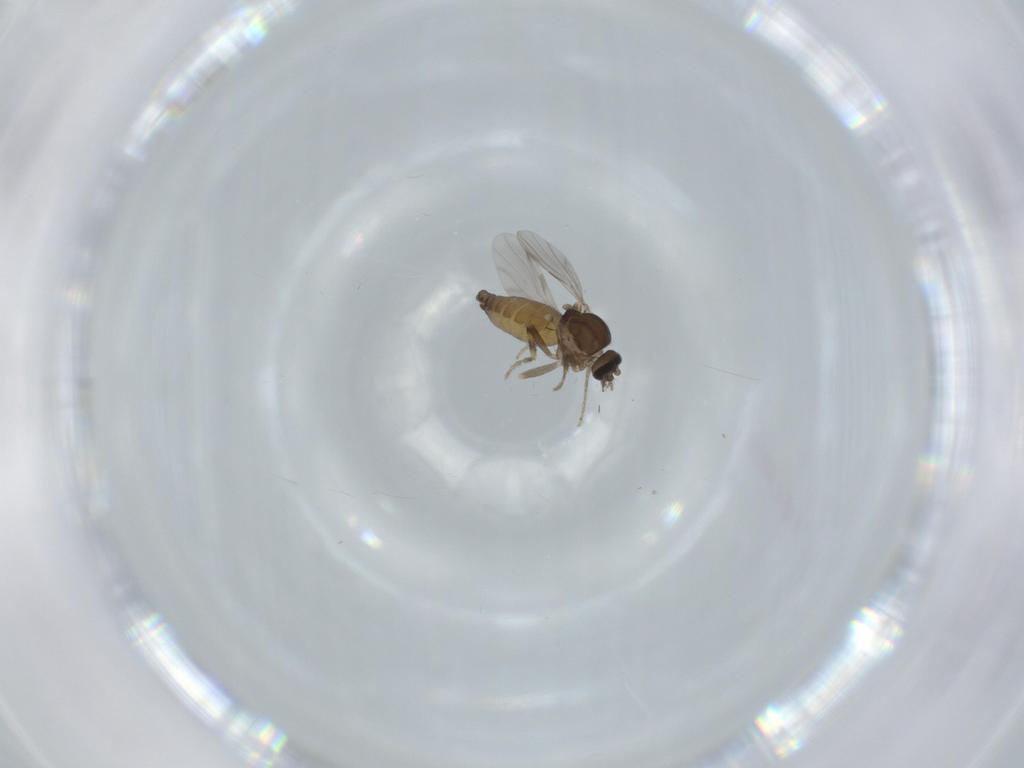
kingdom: Animalia
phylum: Arthropoda
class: Insecta
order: Diptera
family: Ceratopogonidae
